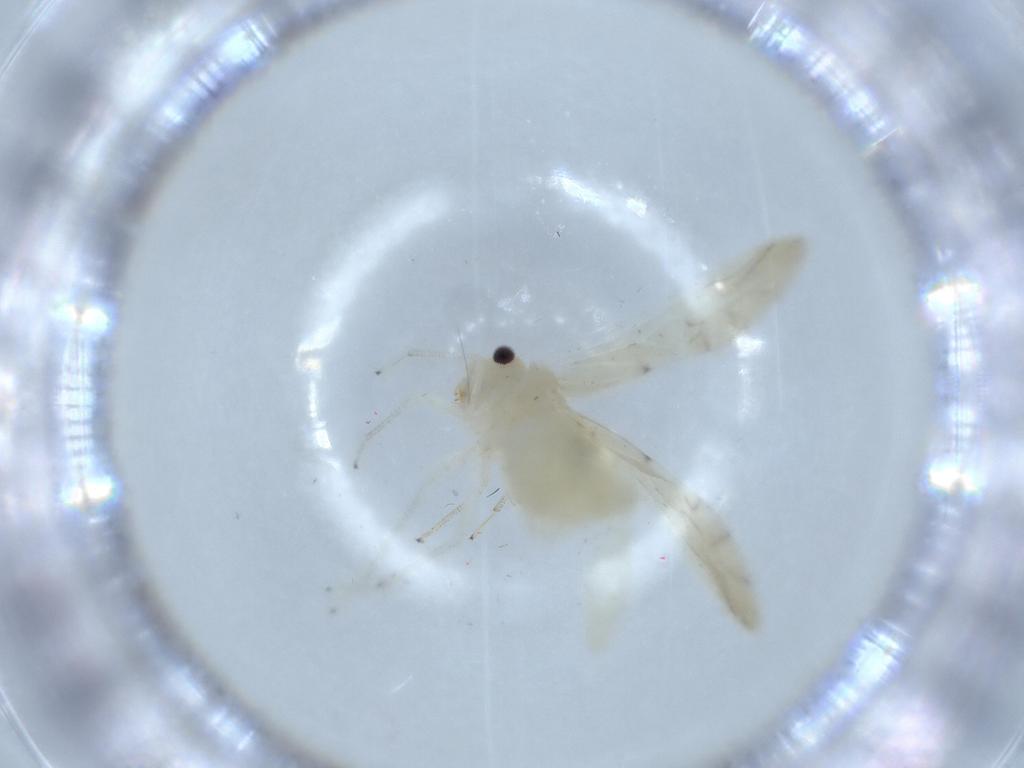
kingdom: Animalia
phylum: Arthropoda
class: Insecta
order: Psocodea
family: Caeciliusidae
